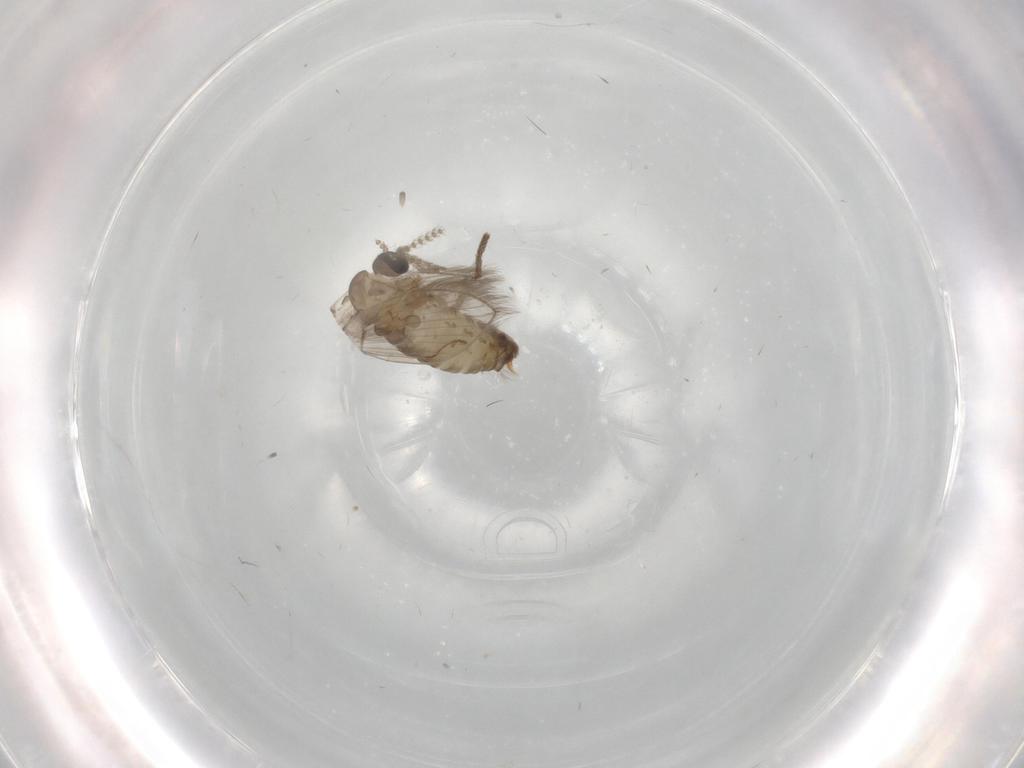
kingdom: Animalia
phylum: Arthropoda
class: Insecta
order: Diptera
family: Psychodidae
